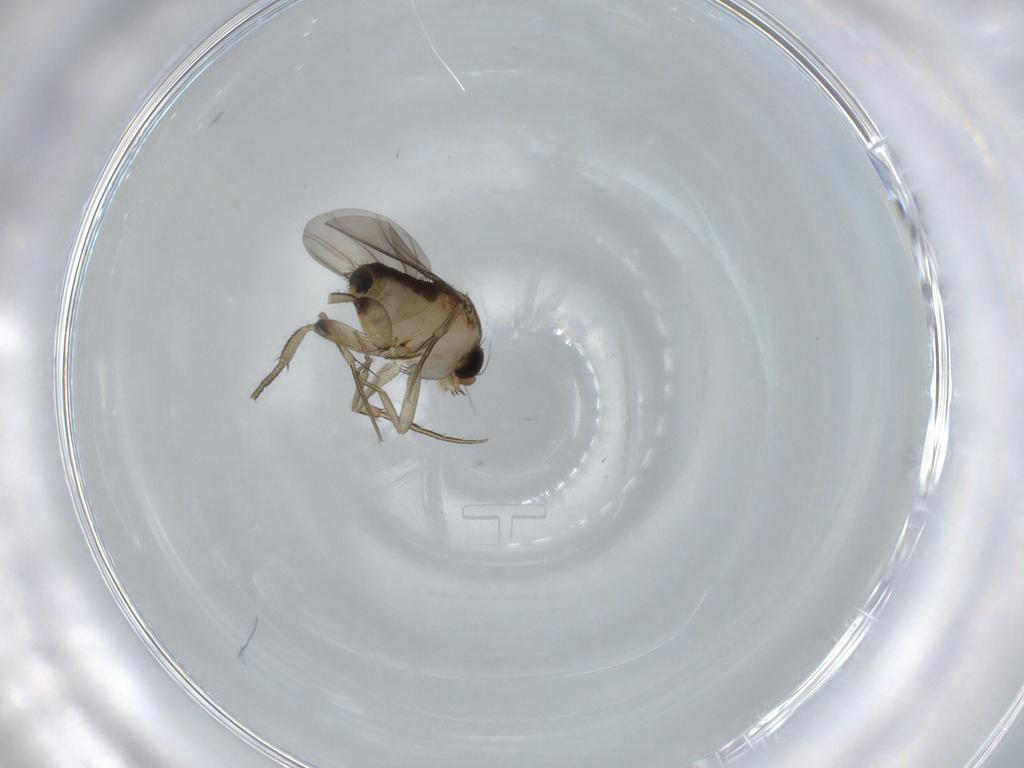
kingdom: Animalia
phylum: Arthropoda
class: Insecta
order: Diptera
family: Phoridae
